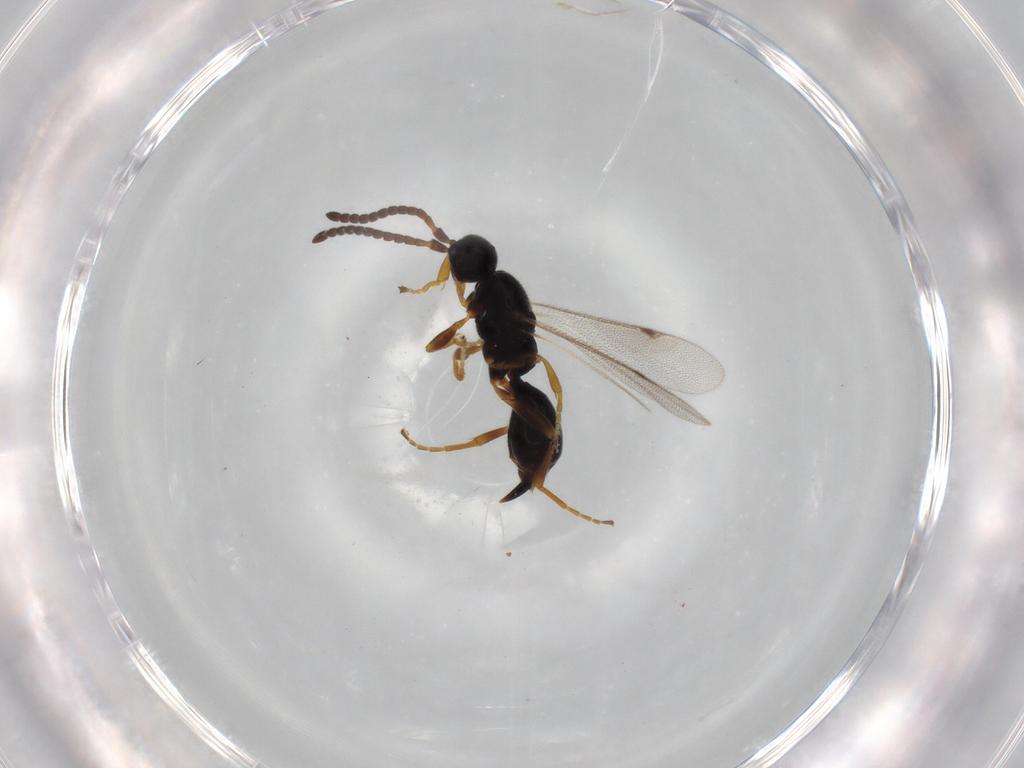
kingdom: Animalia
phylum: Arthropoda
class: Insecta
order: Hymenoptera
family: Proctotrupidae
